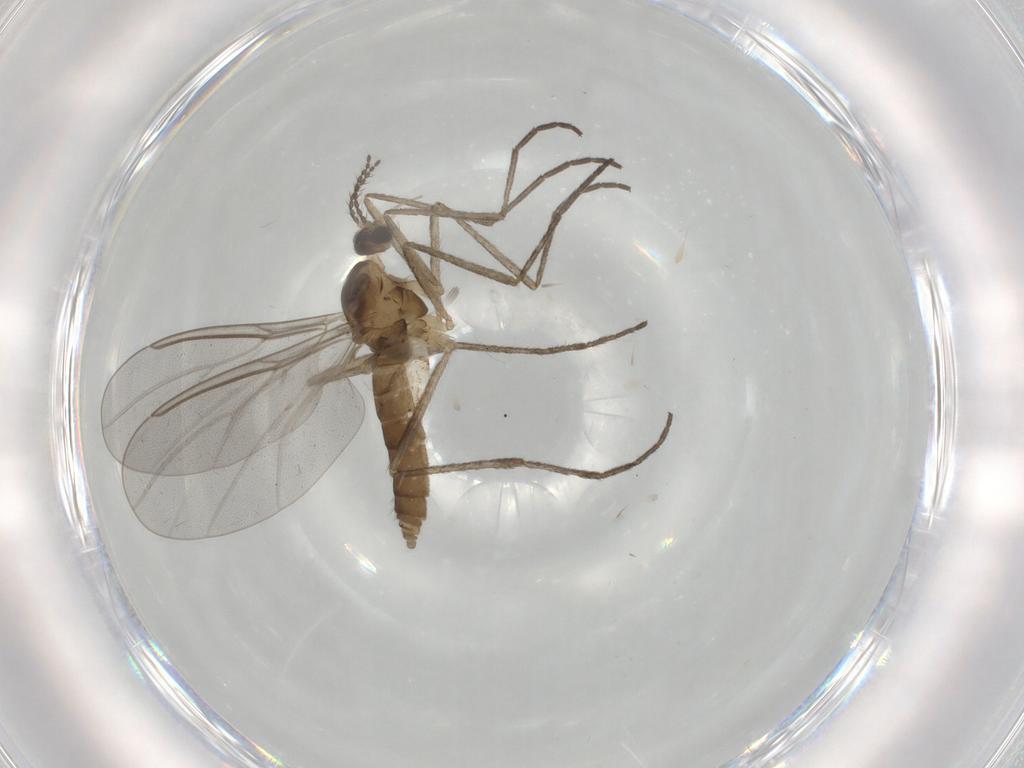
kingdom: Animalia
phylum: Arthropoda
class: Insecta
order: Diptera
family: Cecidomyiidae
